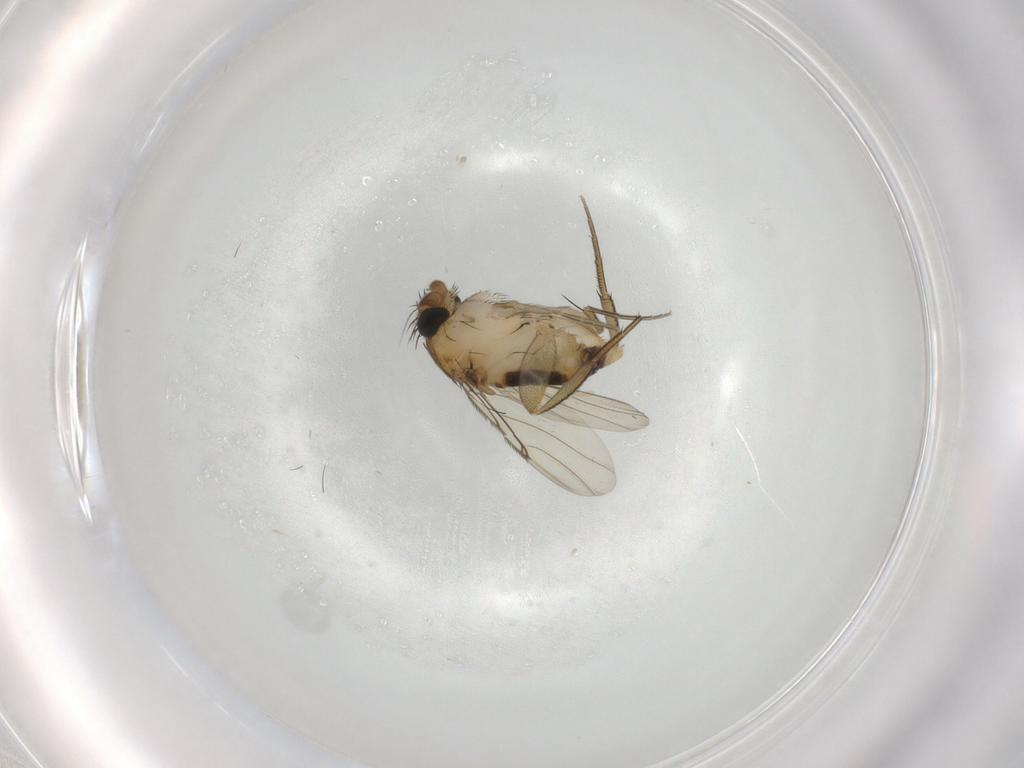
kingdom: Animalia
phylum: Arthropoda
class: Insecta
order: Diptera
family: Phoridae
